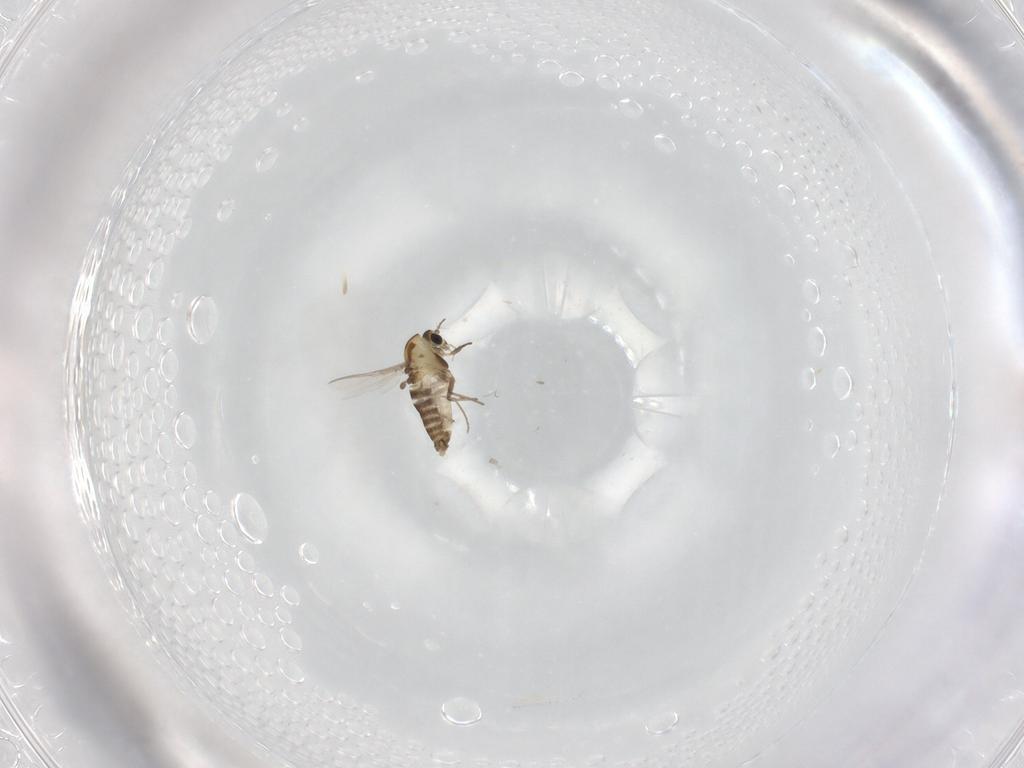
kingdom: Animalia
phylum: Arthropoda
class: Insecta
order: Diptera
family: Chironomidae
